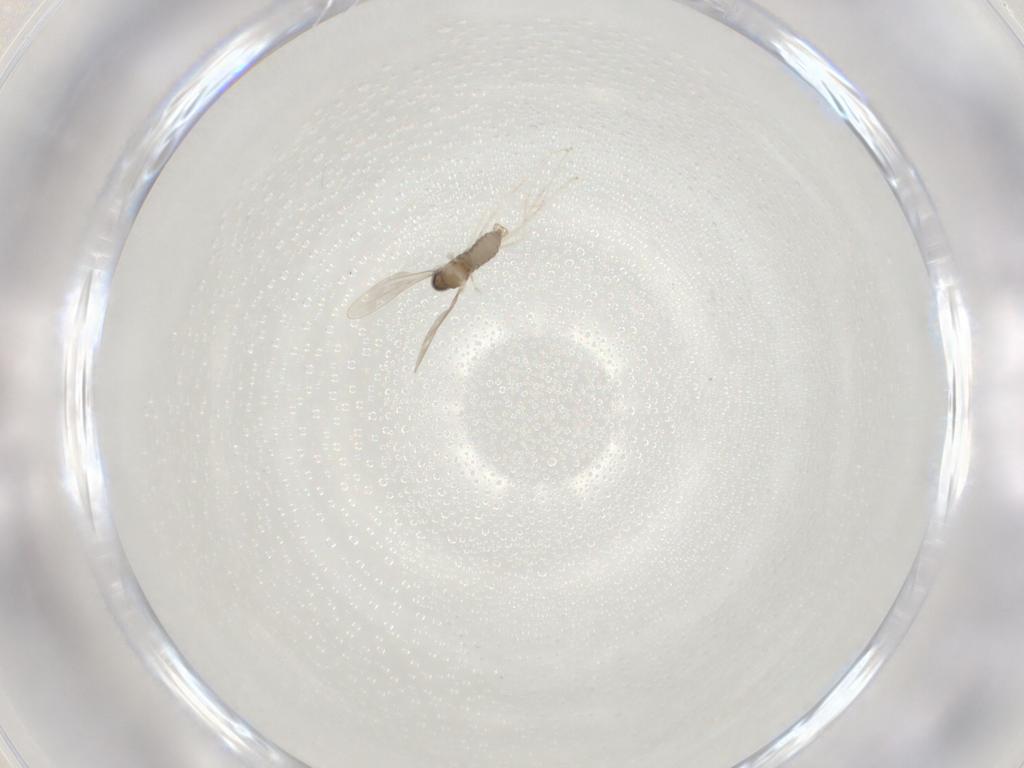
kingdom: Animalia
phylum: Arthropoda
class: Insecta
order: Diptera
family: Cecidomyiidae
